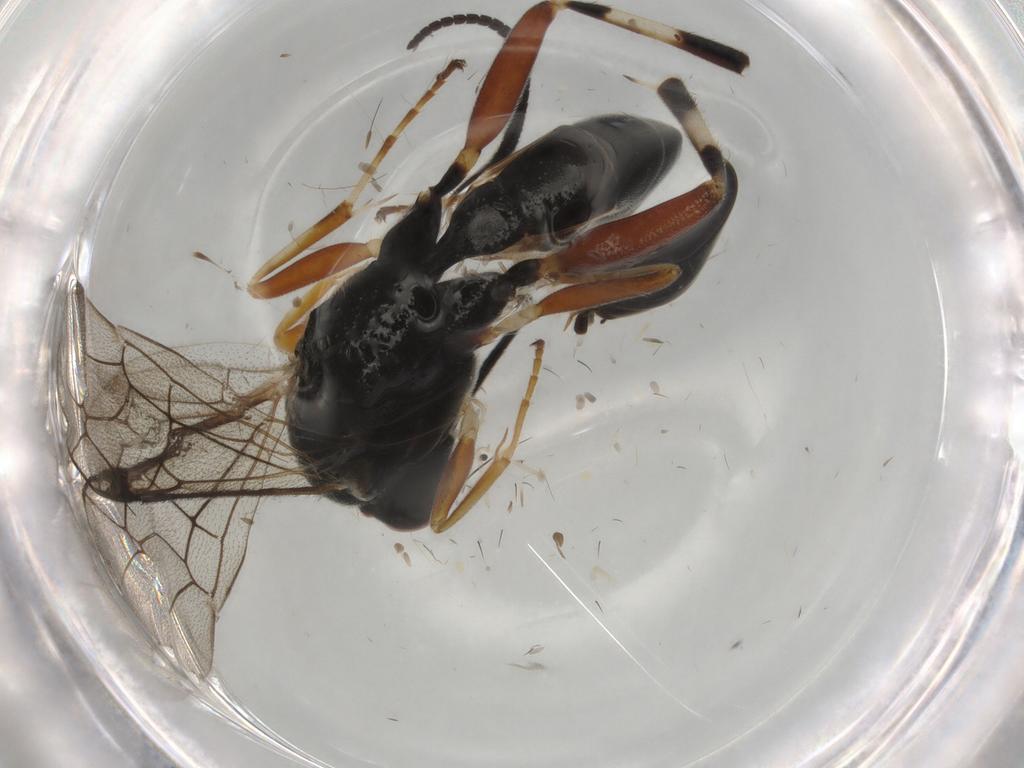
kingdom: Animalia
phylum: Arthropoda
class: Insecta
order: Hymenoptera
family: Ichneumonidae
